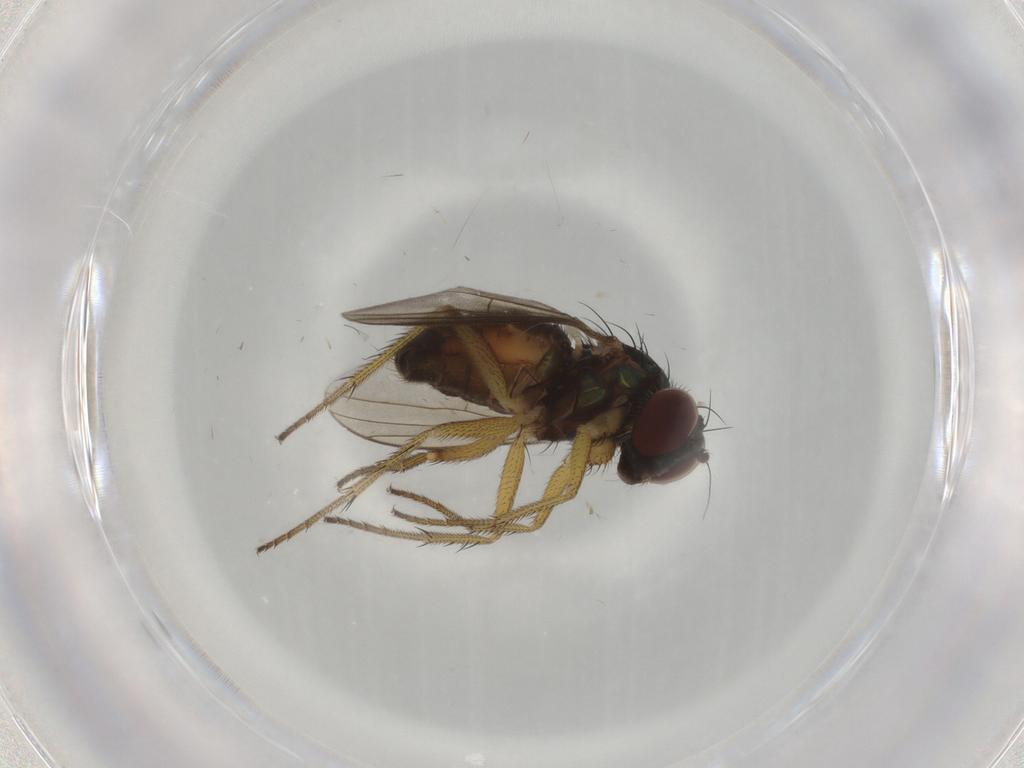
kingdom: Animalia
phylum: Arthropoda
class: Insecta
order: Diptera
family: Dolichopodidae
